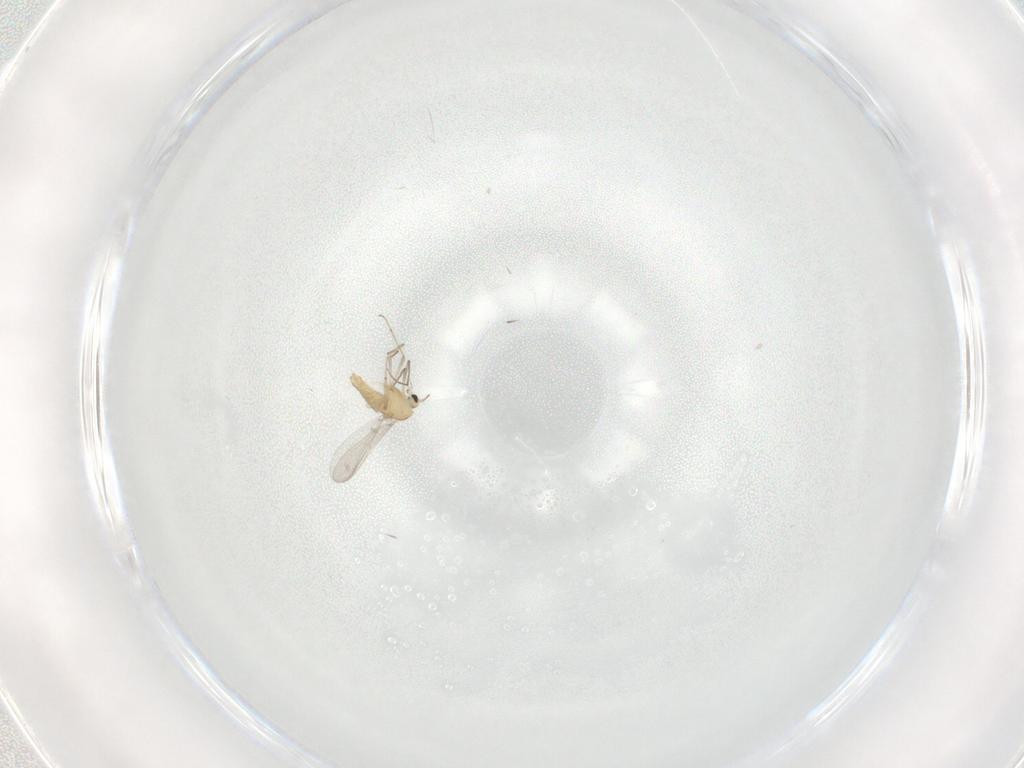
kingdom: Animalia
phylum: Arthropoda
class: Insecta
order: Diptera
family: Chironomidae
